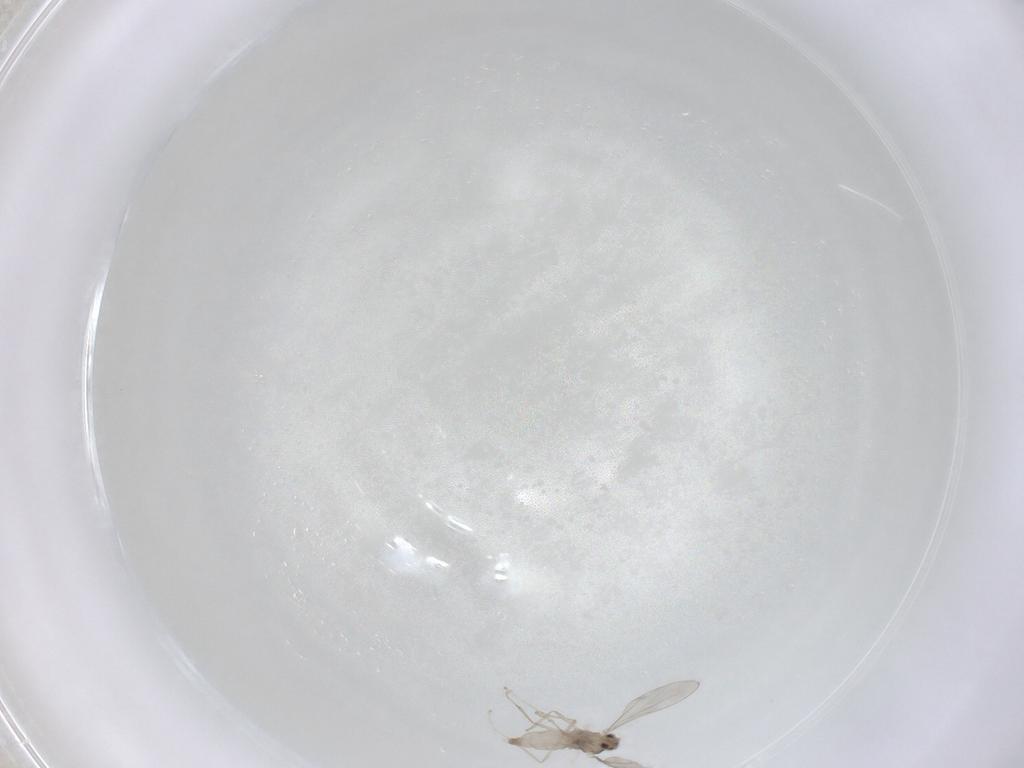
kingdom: Animalia
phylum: Arthropoda
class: Insecta
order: Diptera
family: Cecidomyiidae
